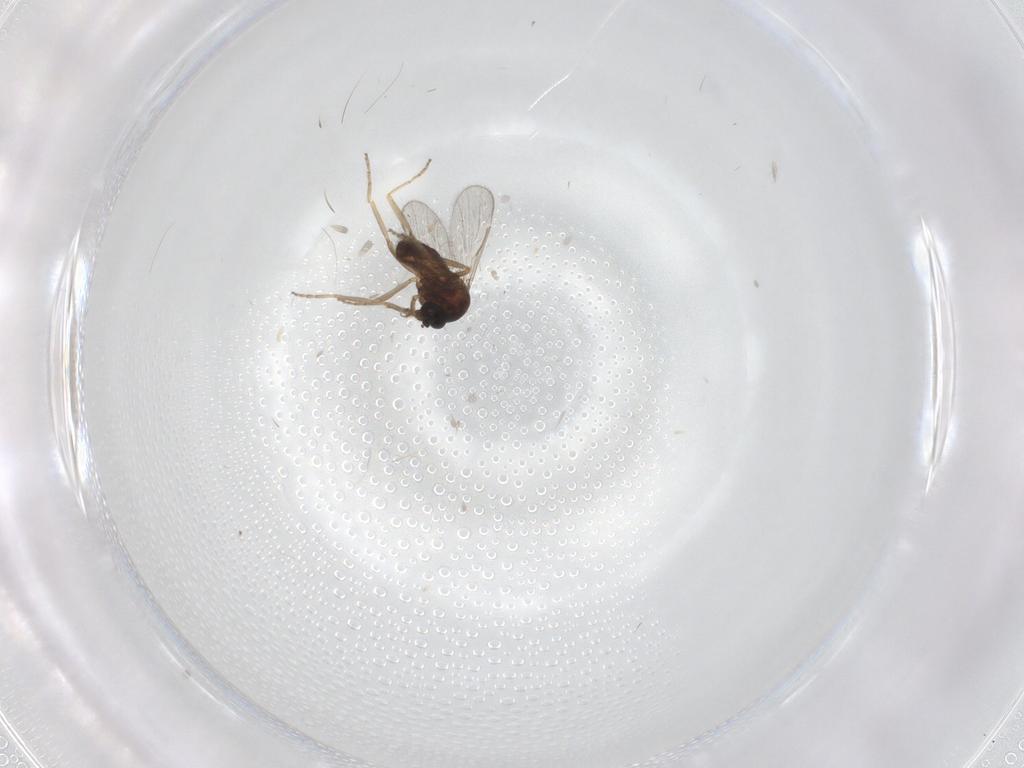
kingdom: Animalia
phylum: Arthropoda
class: Insecta
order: Diptera
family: Ceratopogonidae
